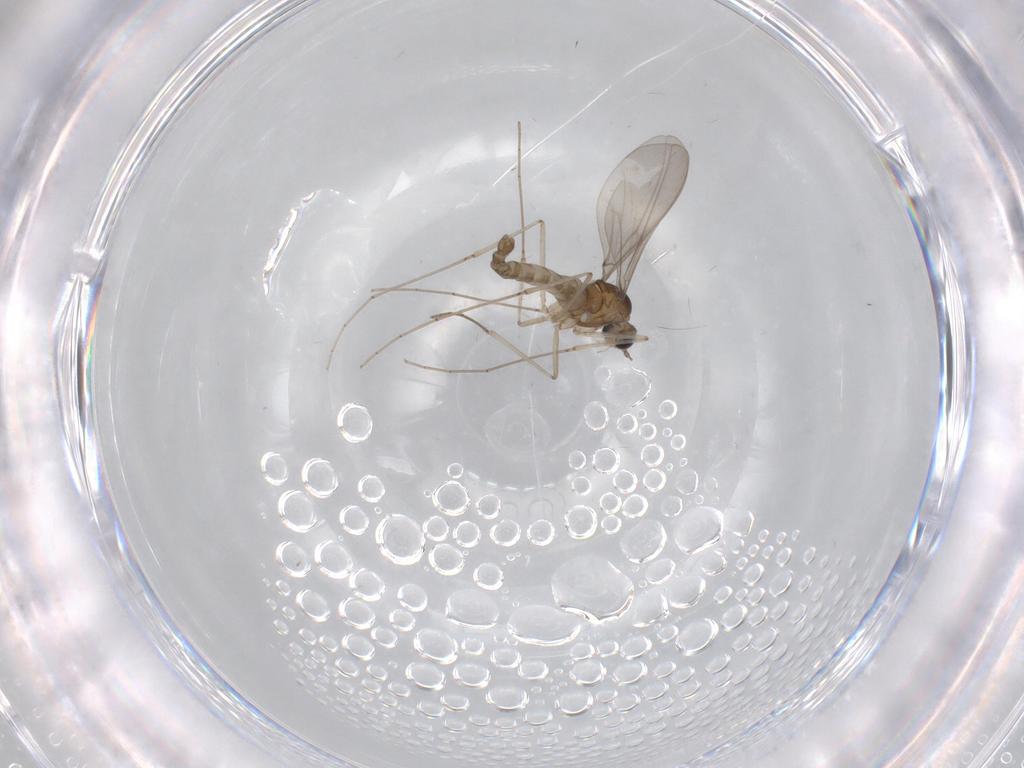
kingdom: Animalia
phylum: Arthropoda
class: Insecta
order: Diptera
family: Cecidomyiidae
